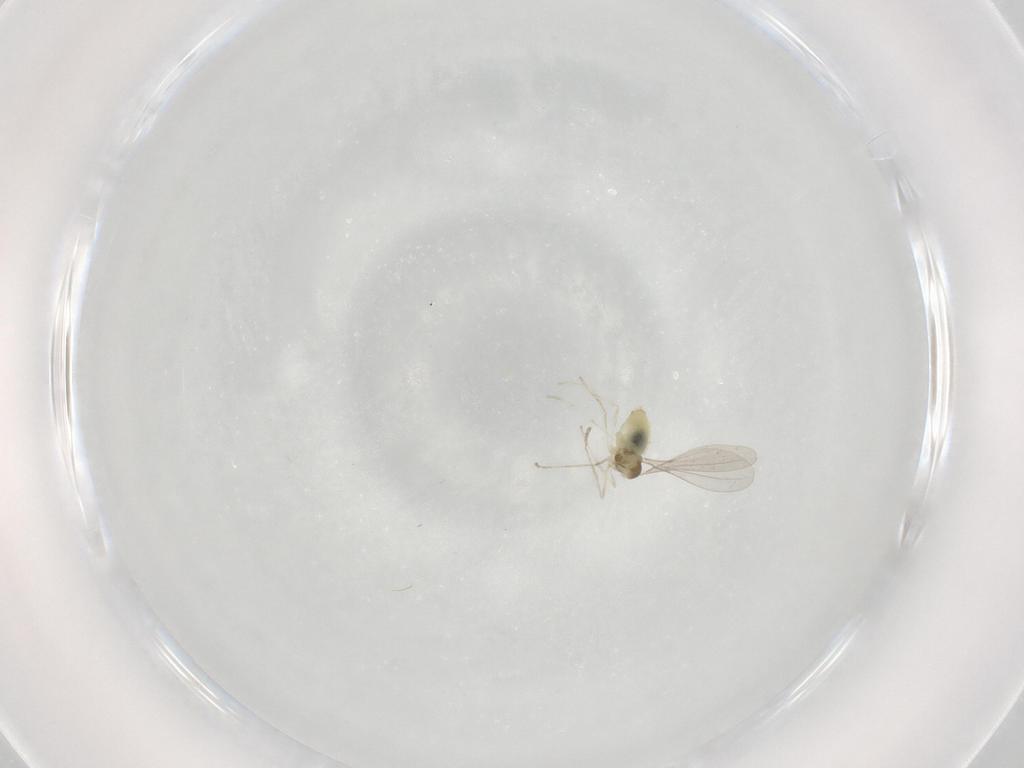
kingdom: Animalia
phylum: Arthropoda
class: Insecta
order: Diptera
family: Cecidomyiidae
